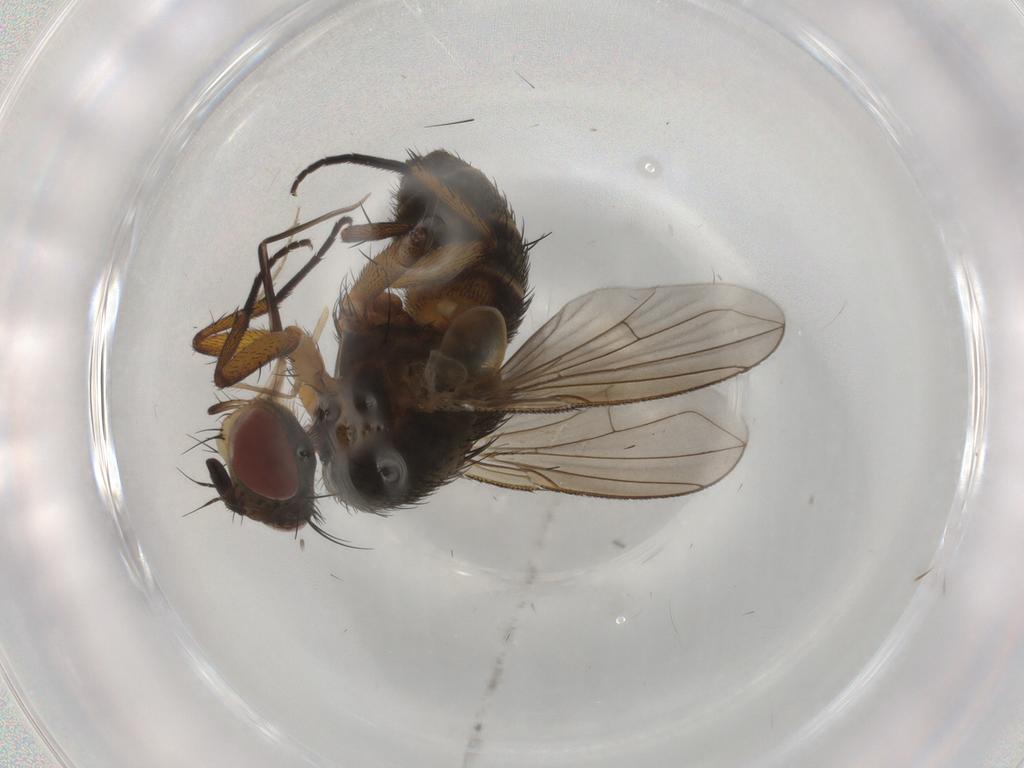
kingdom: Animalia
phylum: Arthropoda
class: Insecta
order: Diptera
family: Tachinidae
